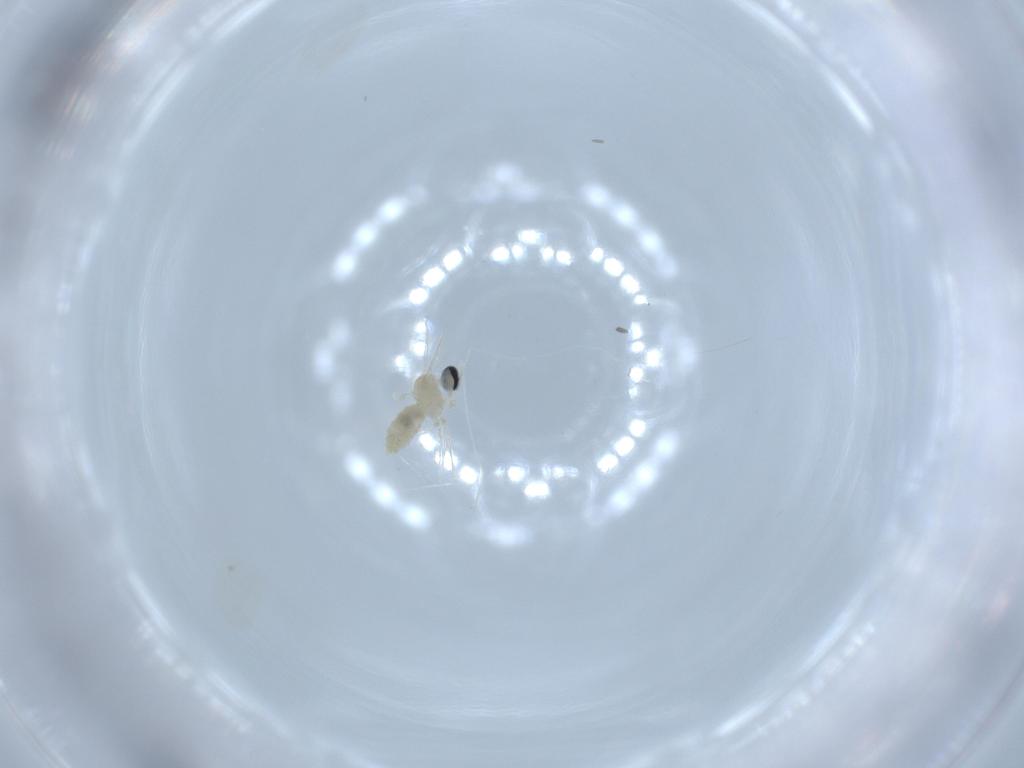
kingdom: Animalia
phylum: Arthropoda
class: Insecta
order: Diptera
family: Cecidomyiidae
